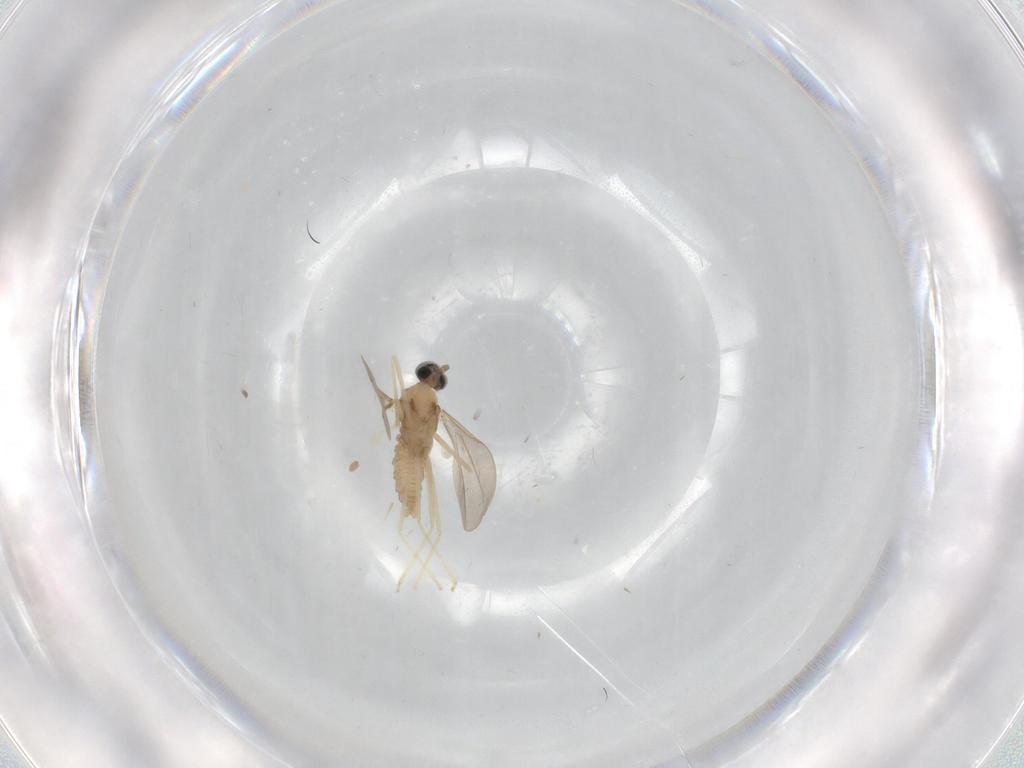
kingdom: Animalia
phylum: Arthropoda
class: Insecta
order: Diptera
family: Cecidomyiidae
